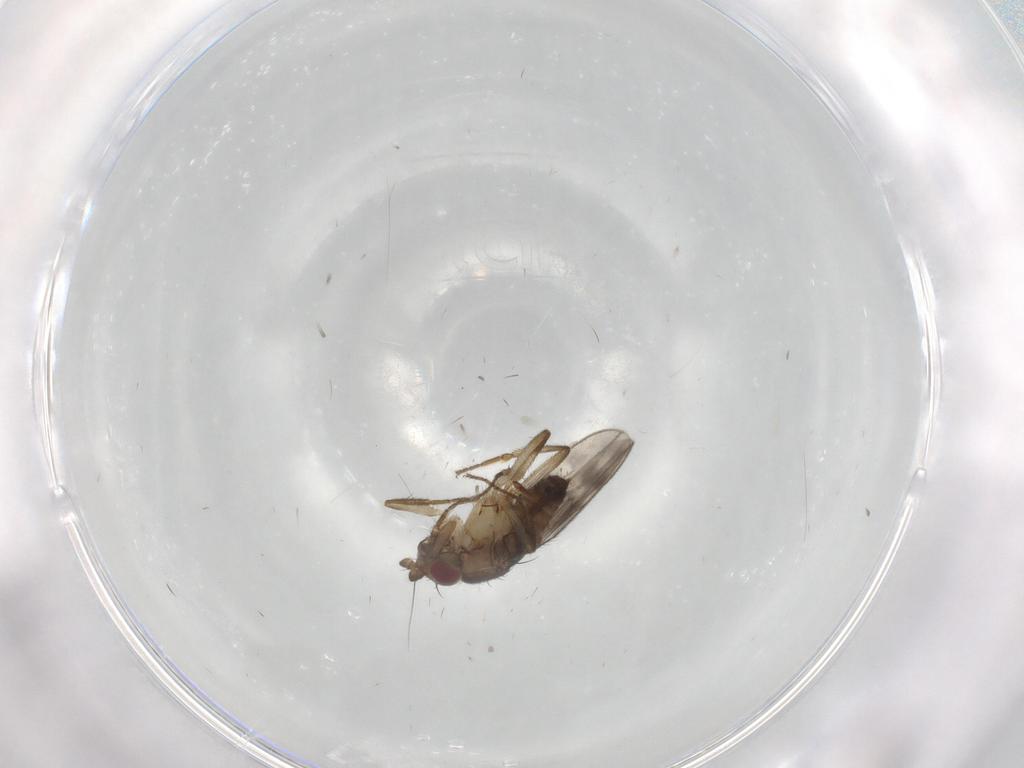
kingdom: Animalia
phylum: Arthropoda
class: Insecta
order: Diptera
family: Sphaeroceridae
